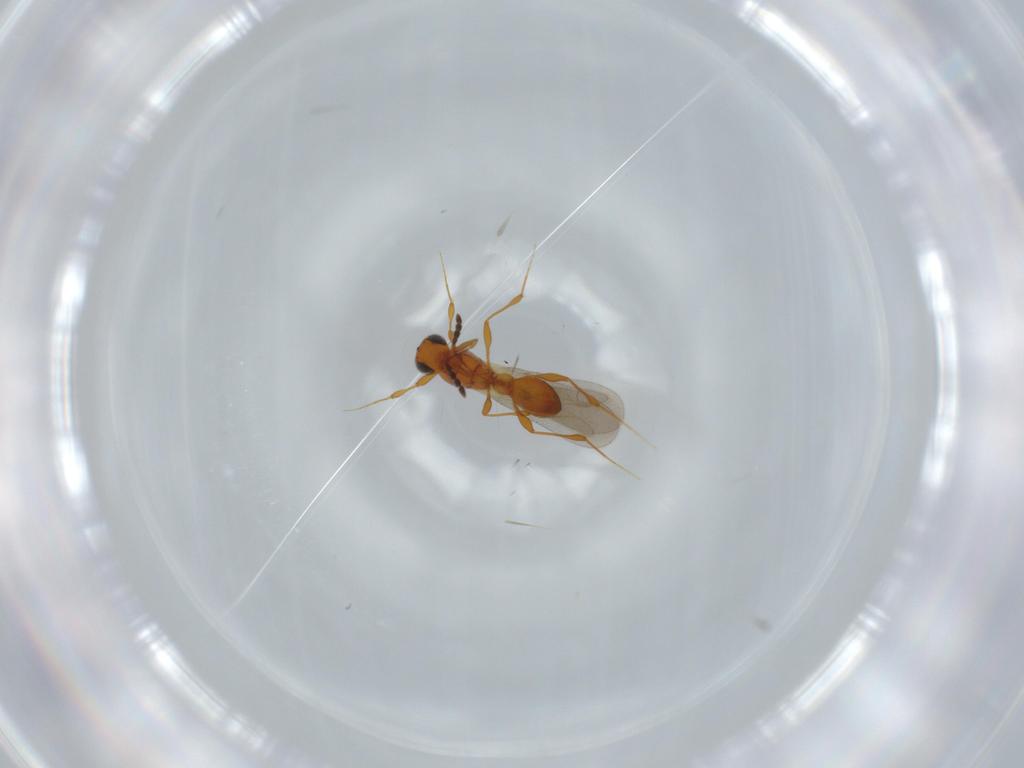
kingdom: Animalia
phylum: Arthropoda
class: Insecta
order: Hymenoptera
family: Platygastridae
